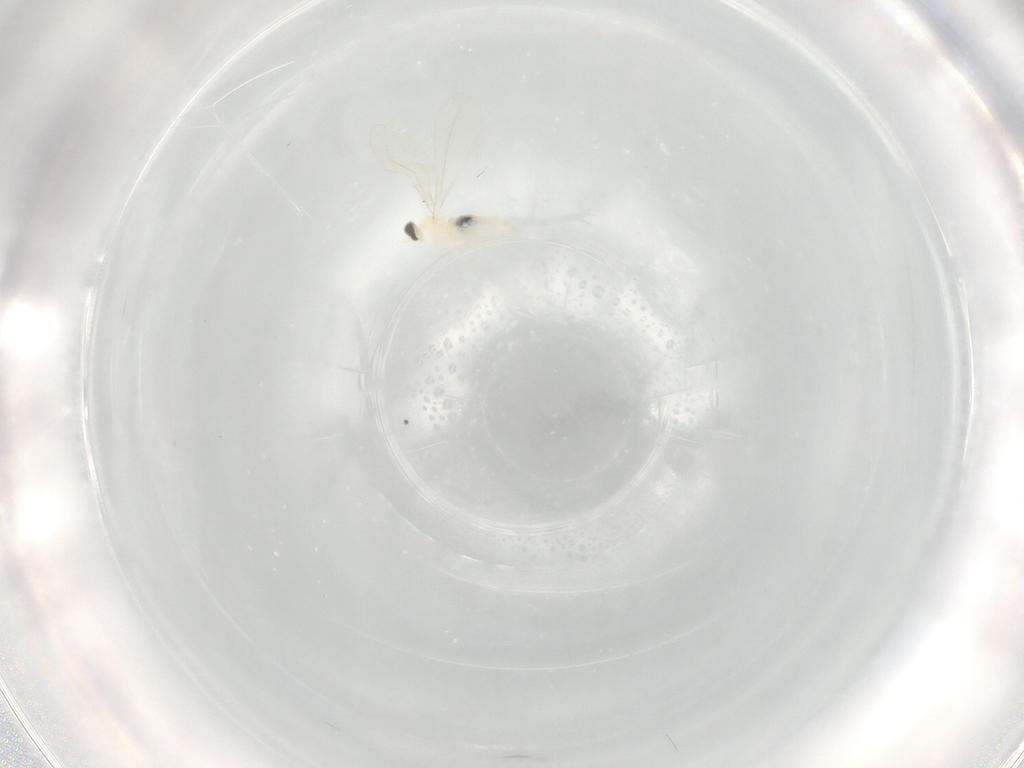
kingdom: Animalia
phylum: Arthropoda
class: Insecta
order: Diptera
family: Cecidomyiidae
